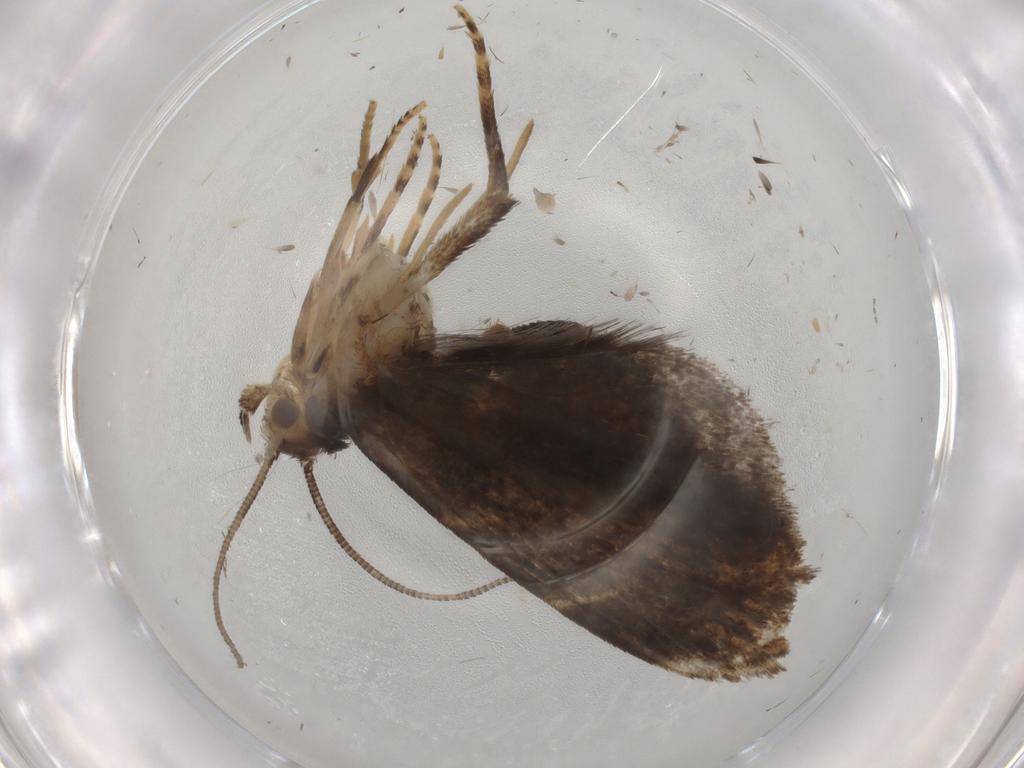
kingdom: Animalia
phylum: Arthropoda
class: Insecta
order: Lepidoptera
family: Dryadaulidae
